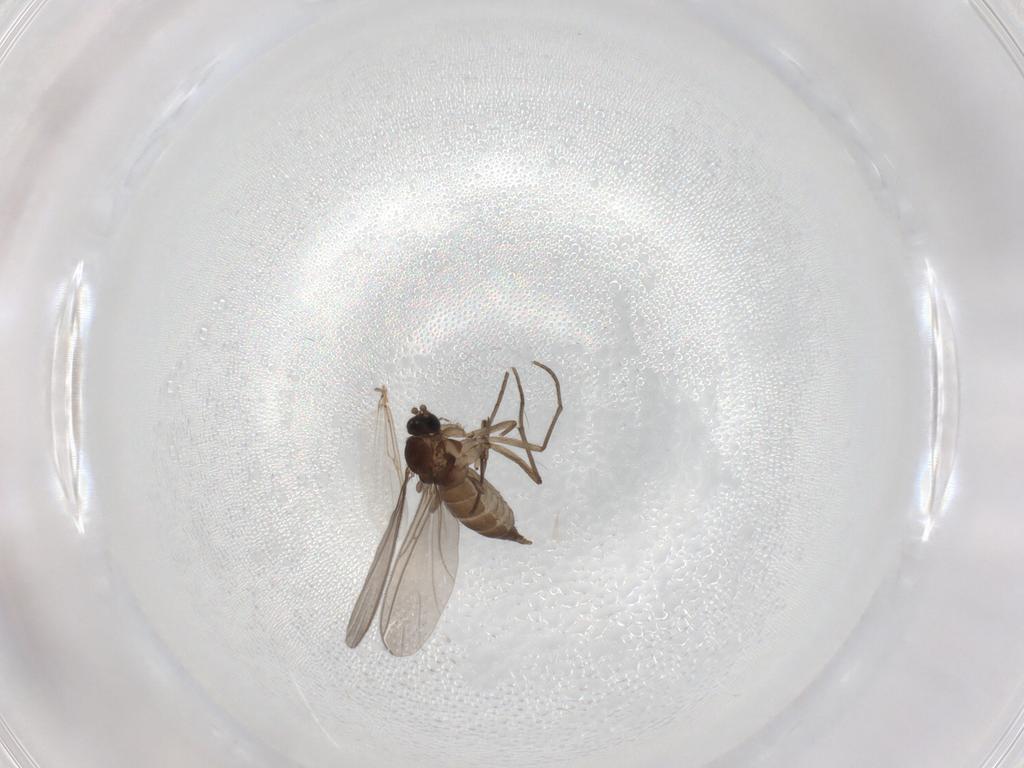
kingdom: Animalia
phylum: Arthropoda
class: Insecta
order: Diptera
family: Sciaridae
